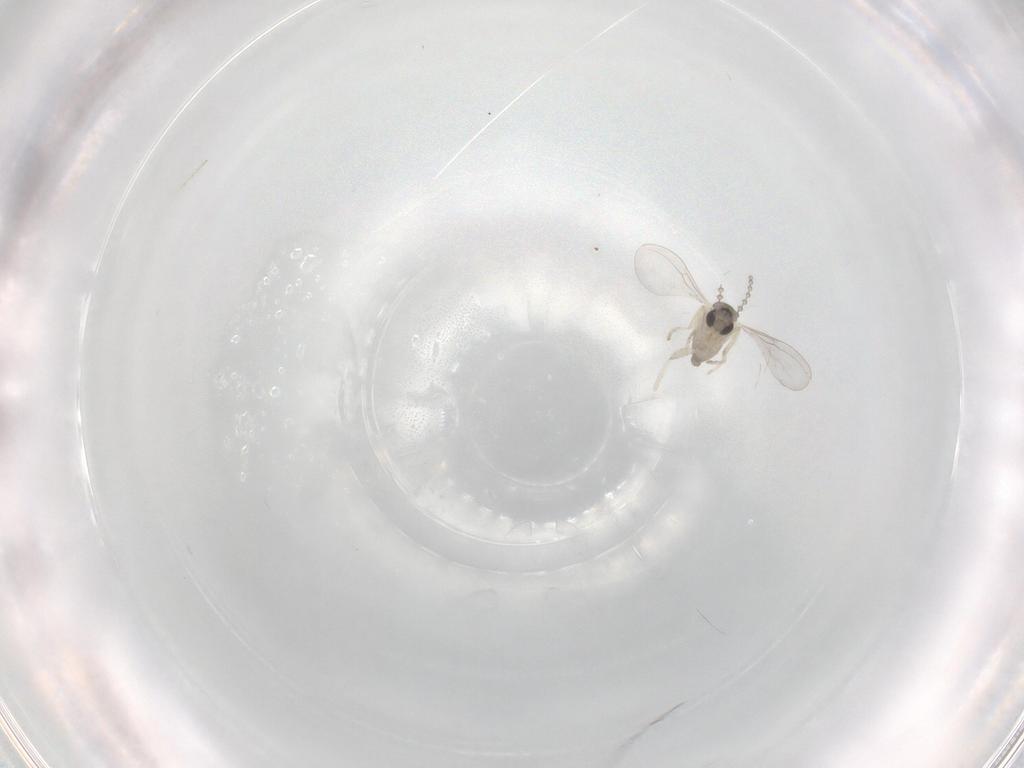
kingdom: Animalia
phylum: Arthropoda
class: Insecta
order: Diptera
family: Cecidomyiidae
